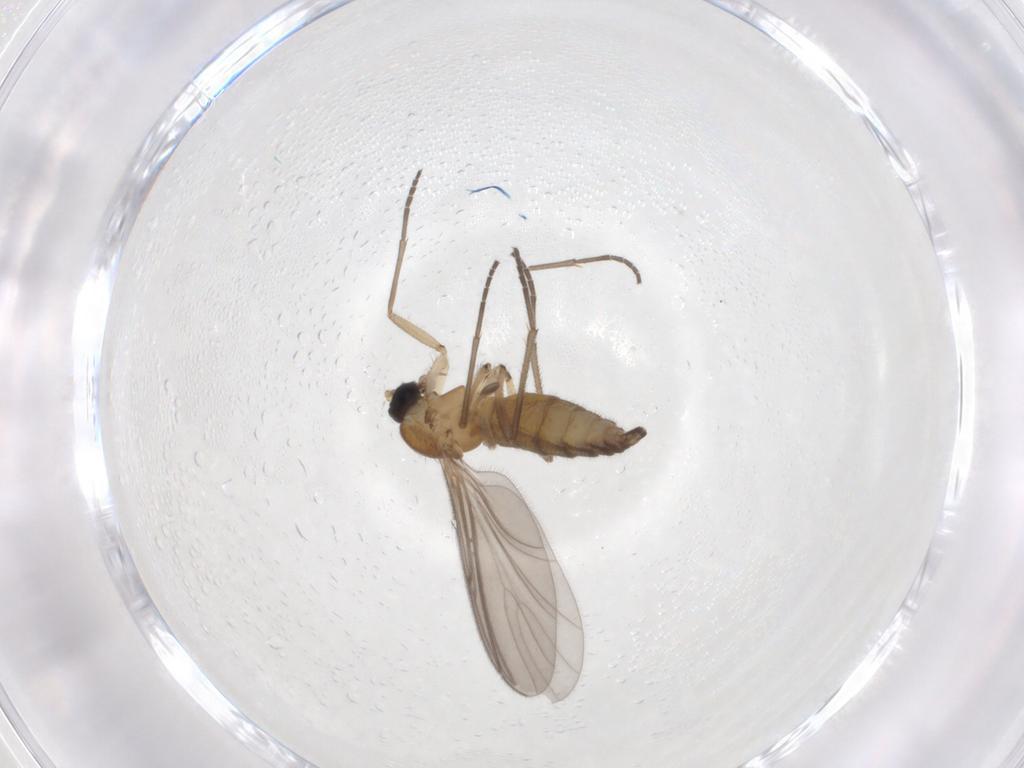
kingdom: Animalia
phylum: Arthropoda
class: Insecta
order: Diptera
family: Sciaridae
